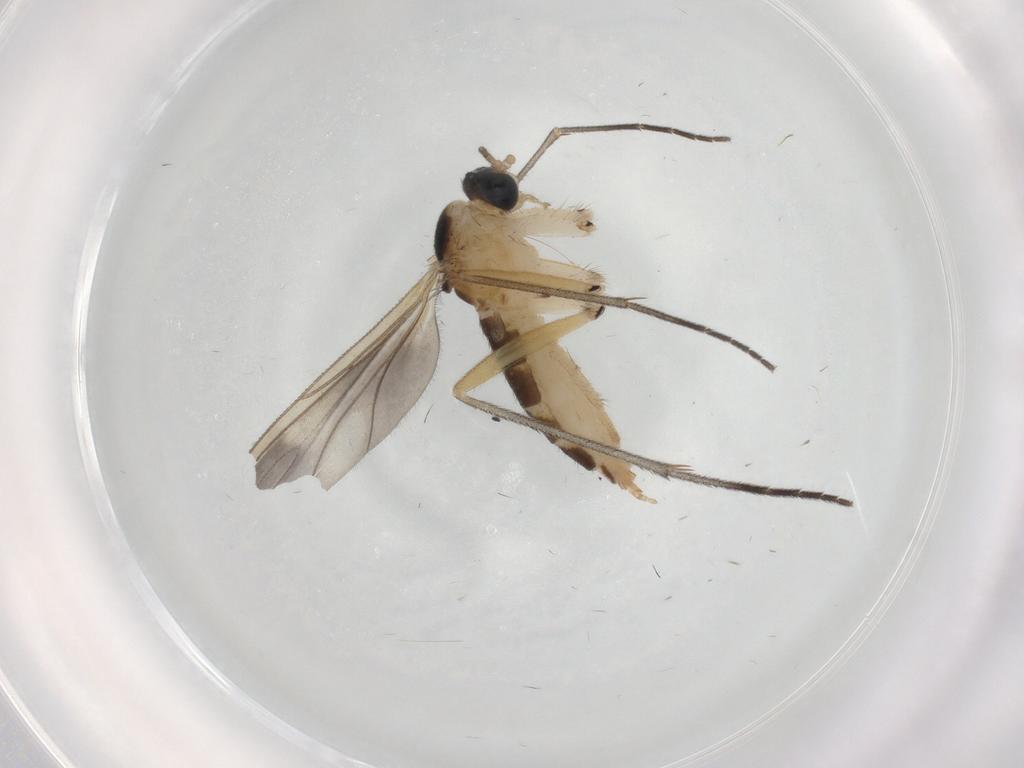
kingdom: Animalia
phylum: Arthropoda
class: Insecta
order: Diptera
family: Sciaridae
